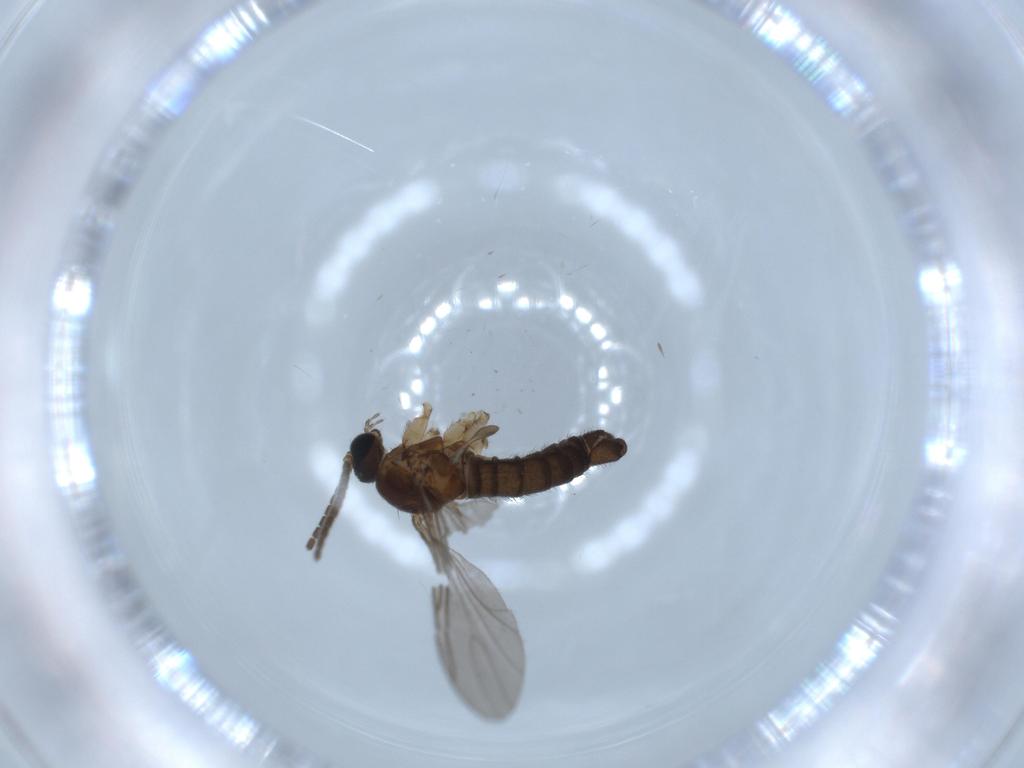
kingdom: Animalia
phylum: Arthropoda
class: Insecta
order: Diptera
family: Sciaridae
